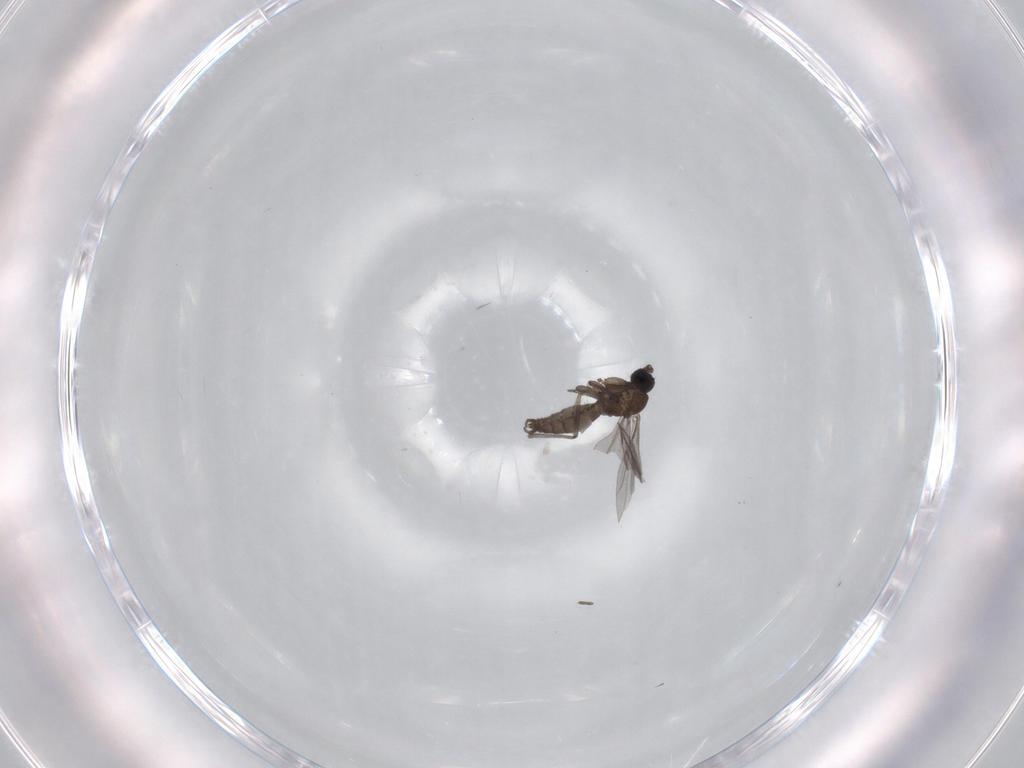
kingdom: Animalia
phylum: Arthropoda
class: Insecta
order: Diptera
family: Sciaridae
